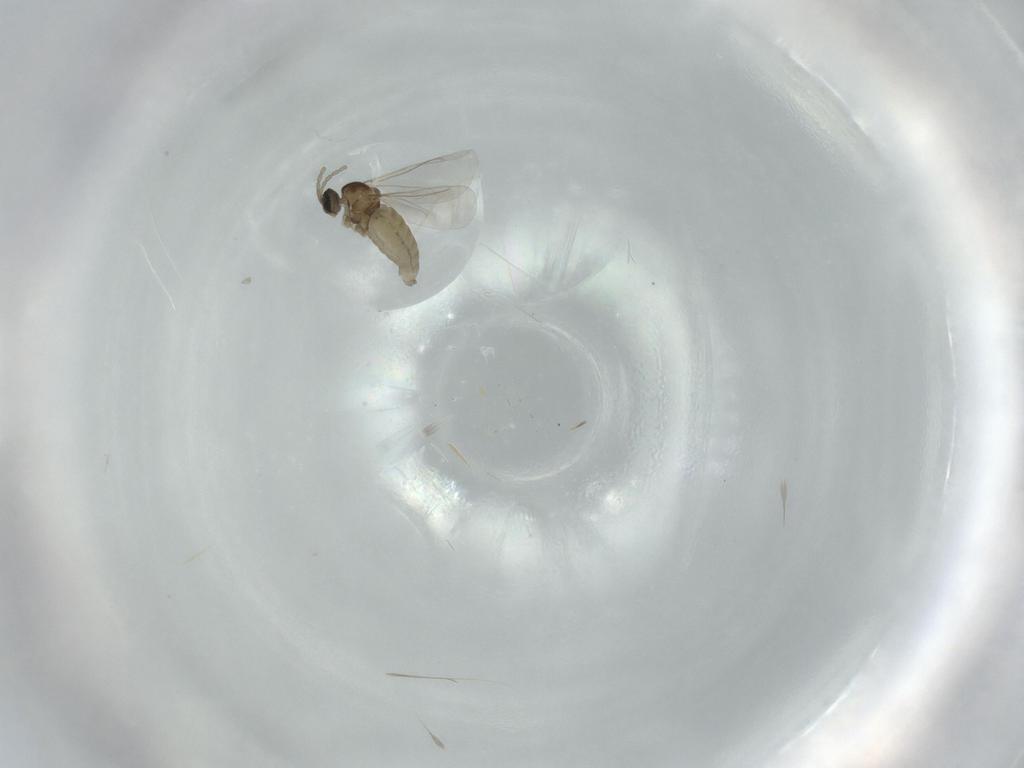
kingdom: Animalia
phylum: Arthropoda
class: Insecta
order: Diptera
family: Cecidomyiidae
